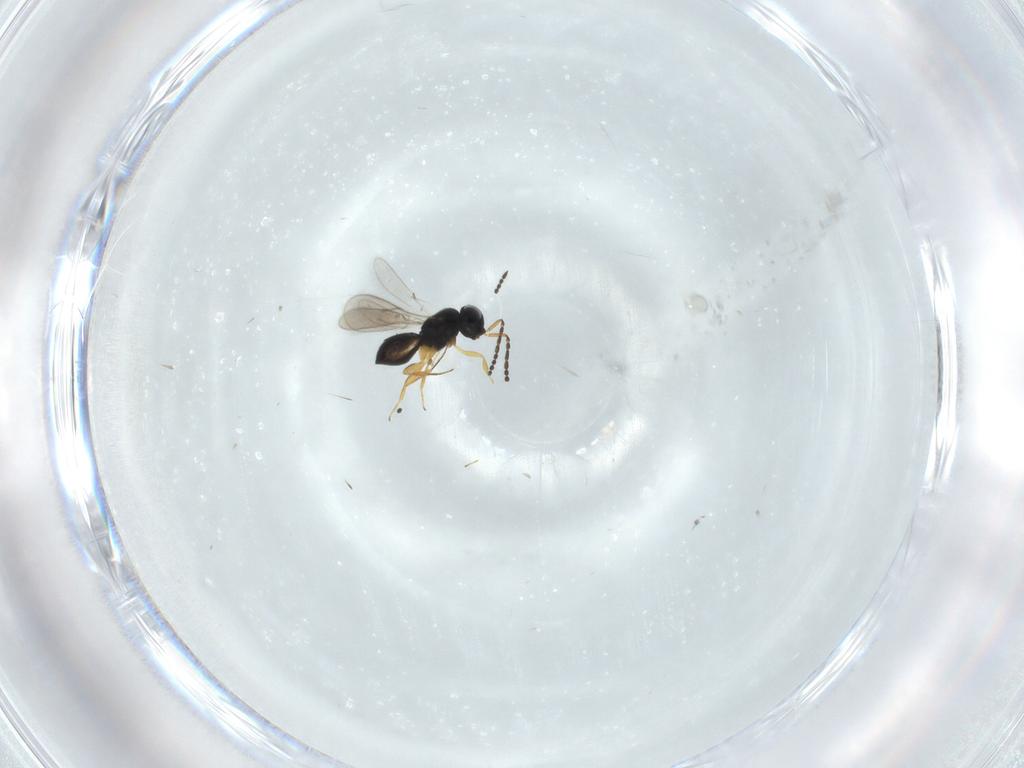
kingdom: Animalia
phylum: Arthropoda
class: Insecta
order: Hymenoptera
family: Scelionidae
